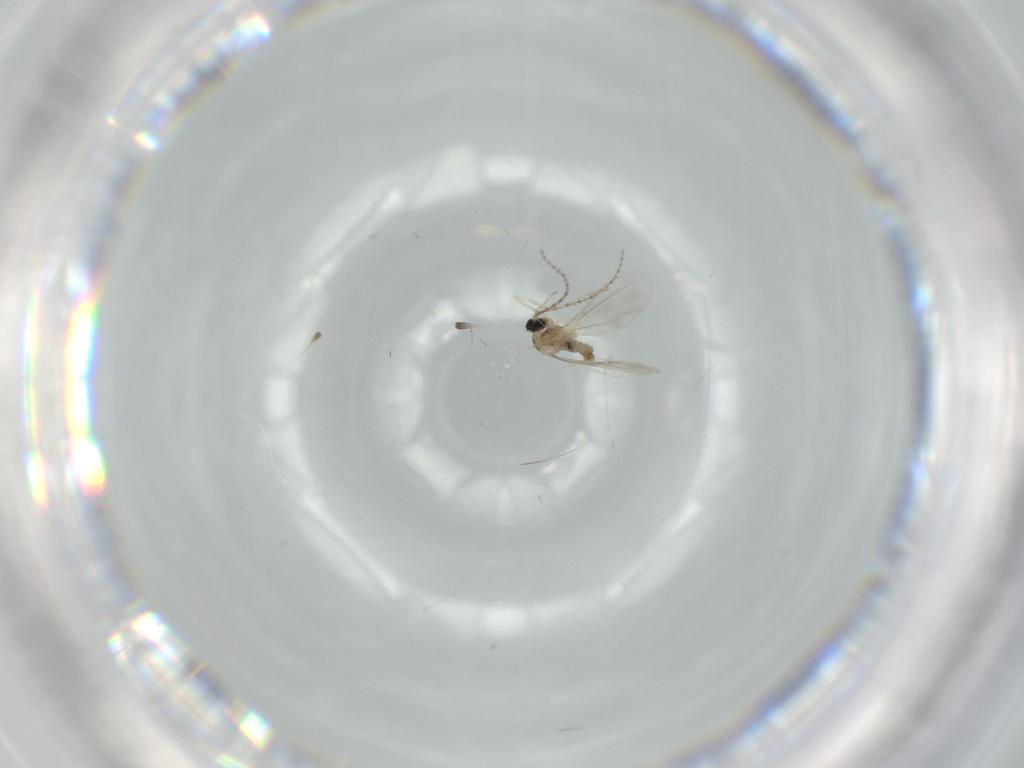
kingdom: Animalia
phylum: Arthropoda
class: Insecta
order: Diptera
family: Cecidomyiidae
